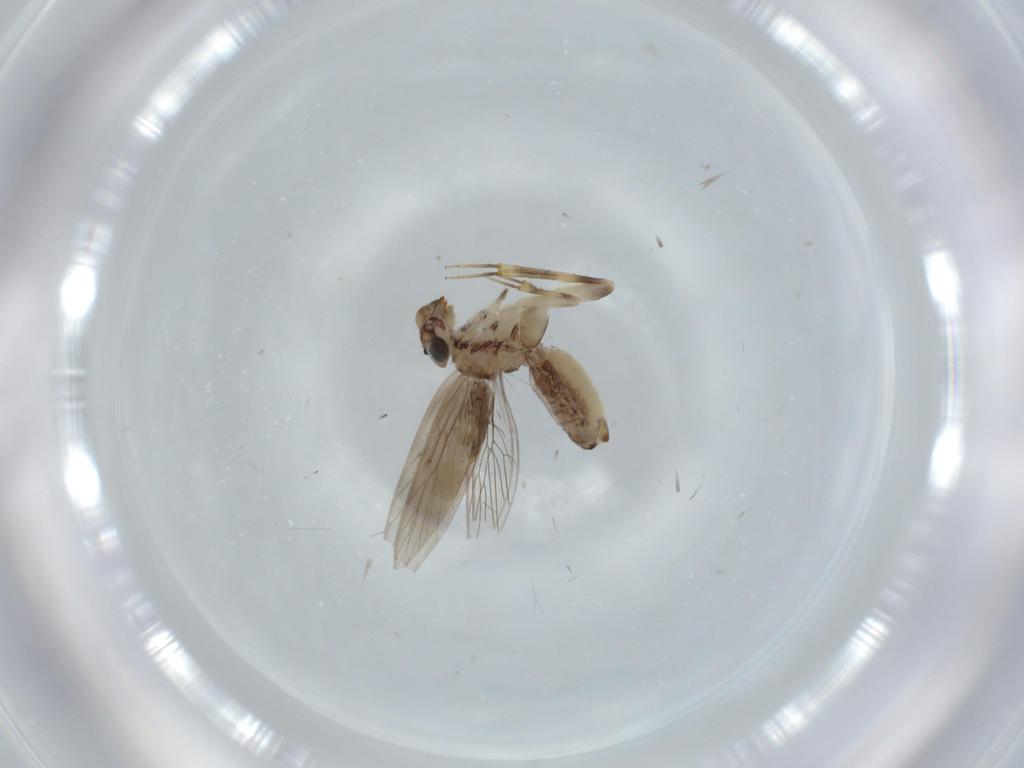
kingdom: Animalia
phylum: Arthropoda
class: Insecta
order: Psocodea
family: Lepidopsocidae
